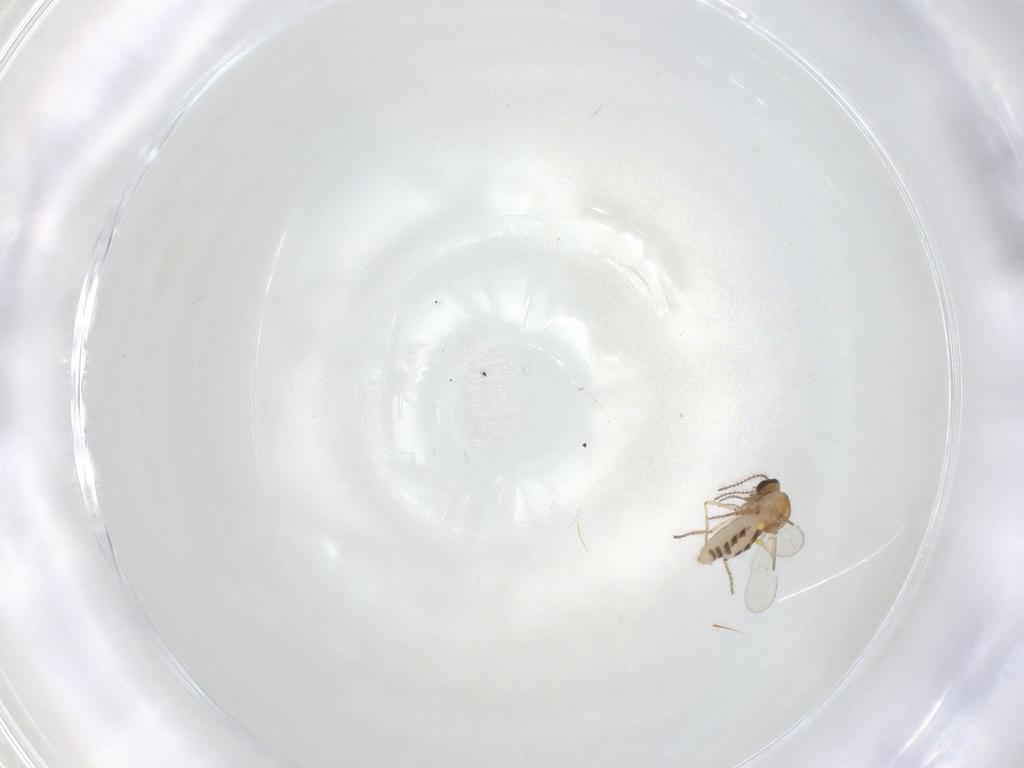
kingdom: Animalia
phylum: Arthropoda
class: Insecta
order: Diptera
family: Ceratopogonidae
